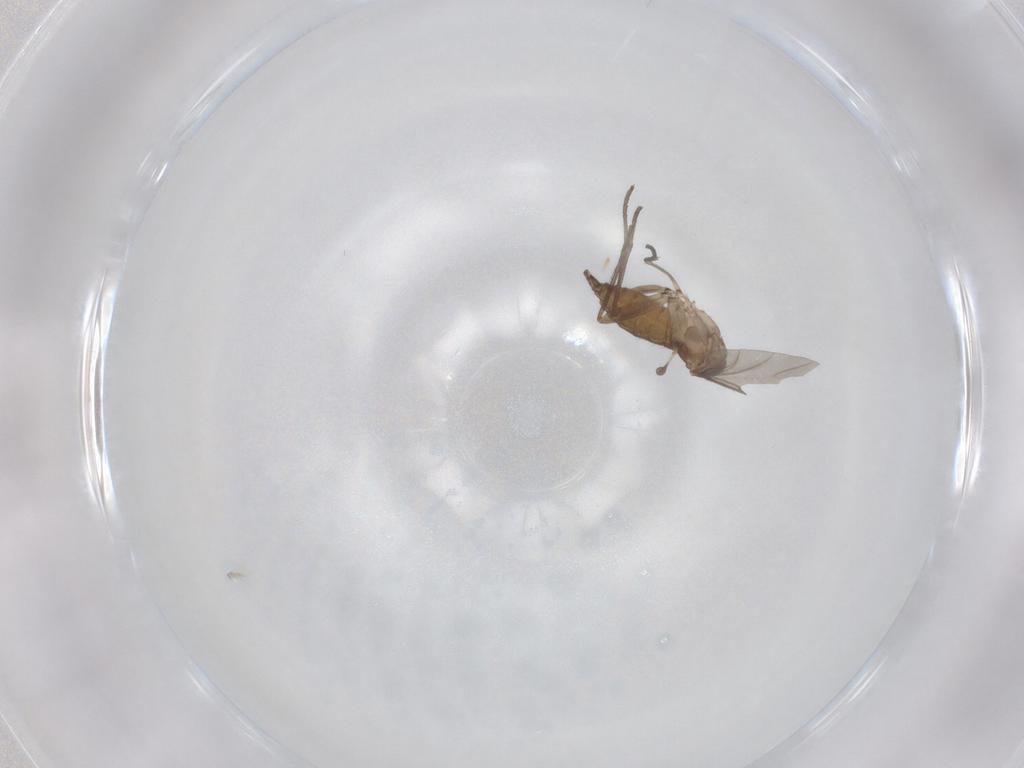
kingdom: Animalia
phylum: Arthropoda
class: Insecta
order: Diptera
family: Sciaridae
